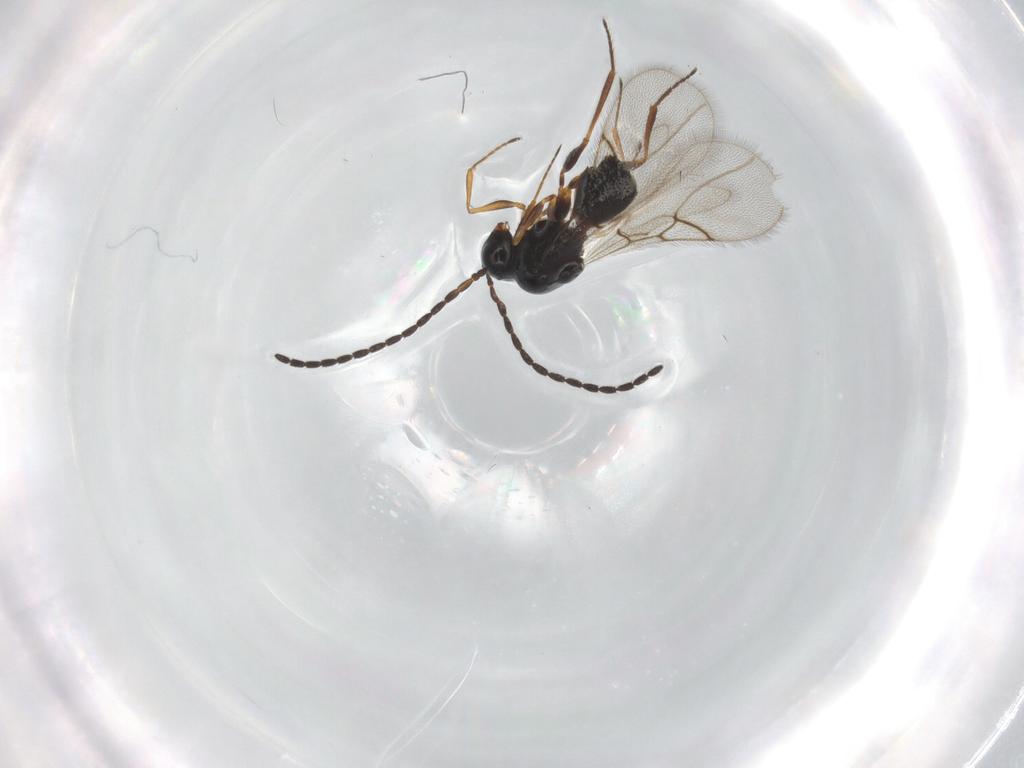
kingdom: Animalia
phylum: Arthropoda
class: Insecta
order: Hymenoptera
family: Figitidae
